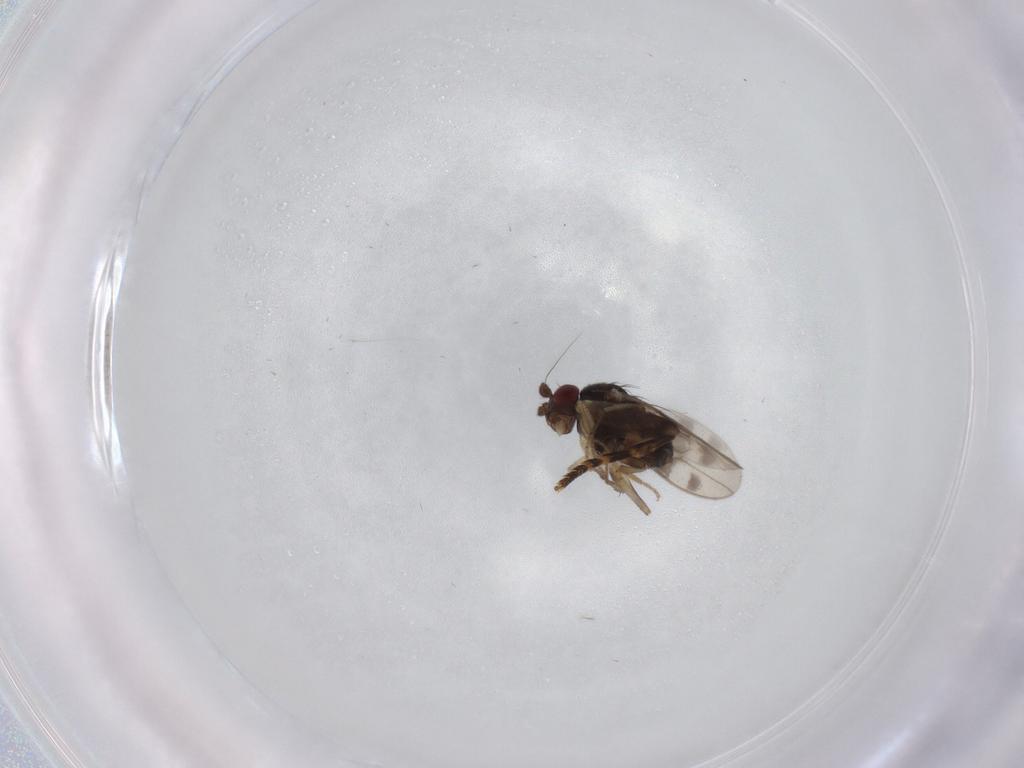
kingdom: Animalia
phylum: Arthropoda
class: Insecta
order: Diptera
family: Sphaeroceridae
